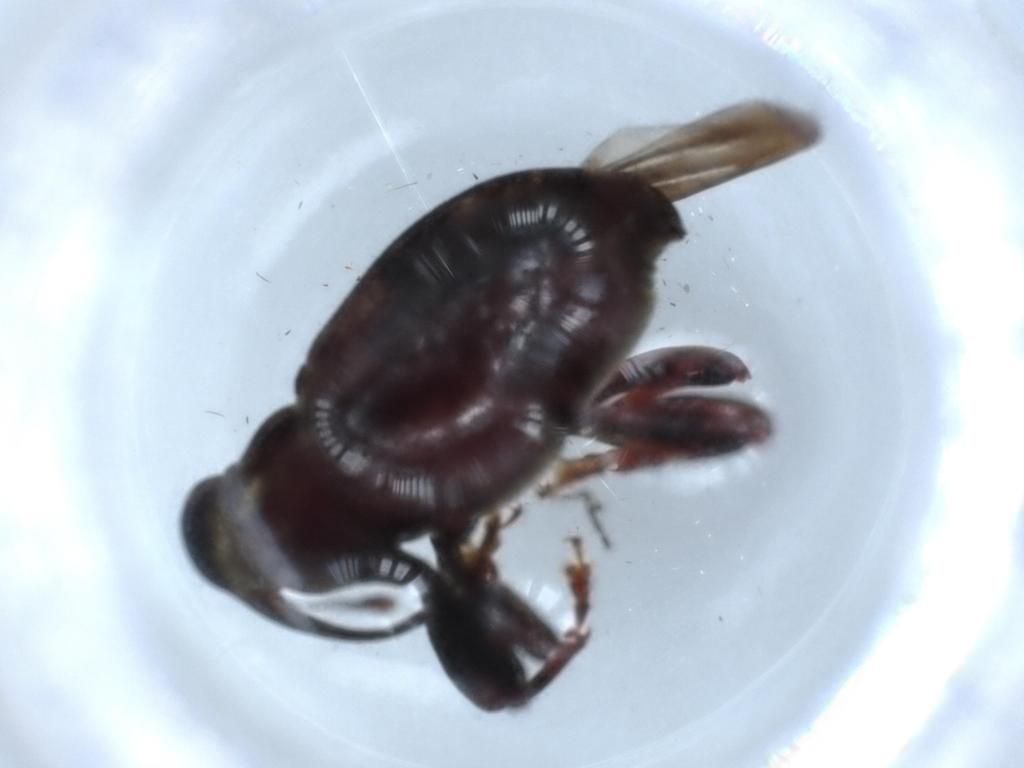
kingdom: Animalia
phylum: Arthropoda
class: Insecta
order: Coleoptera
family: Curculionidae
